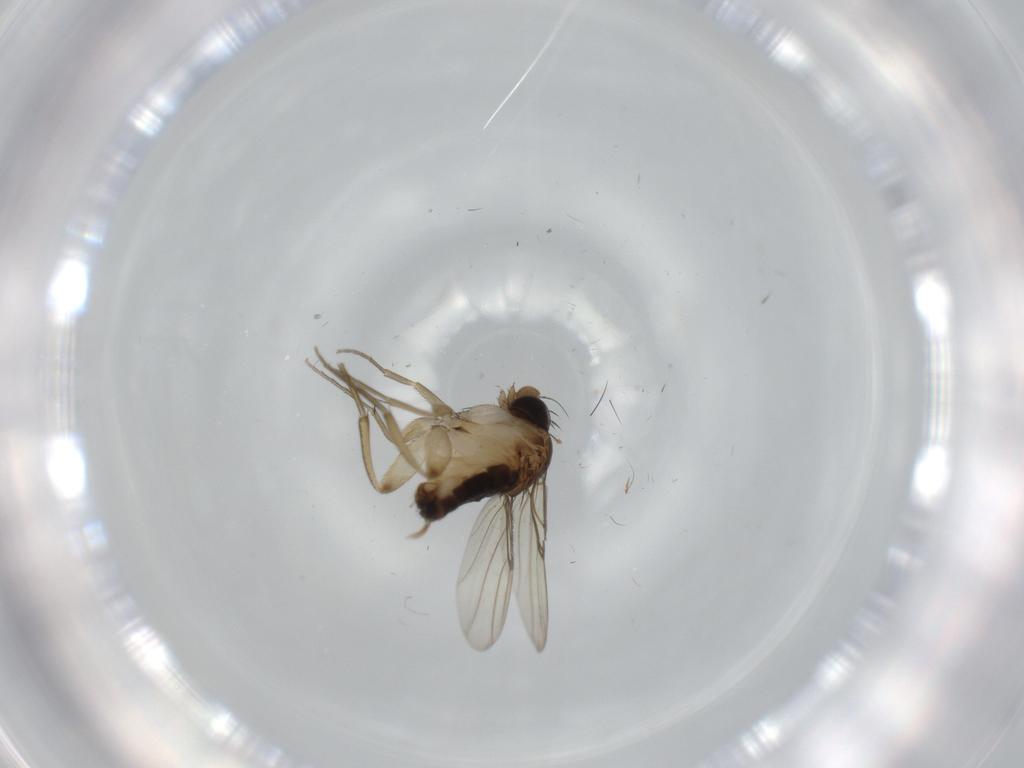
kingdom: Animalia
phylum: Arthropoda
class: Insecta
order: Diptera
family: Phoridae
